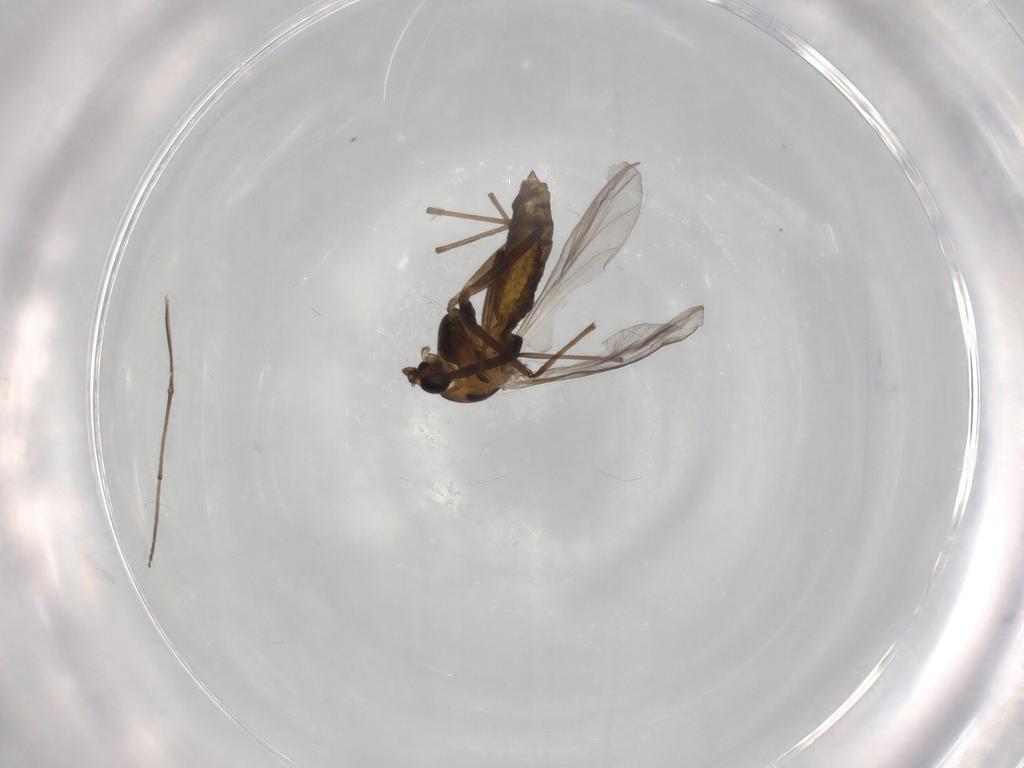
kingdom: Animalia
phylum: Arthropoda
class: Insecta
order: Diptera
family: Chironomidae
